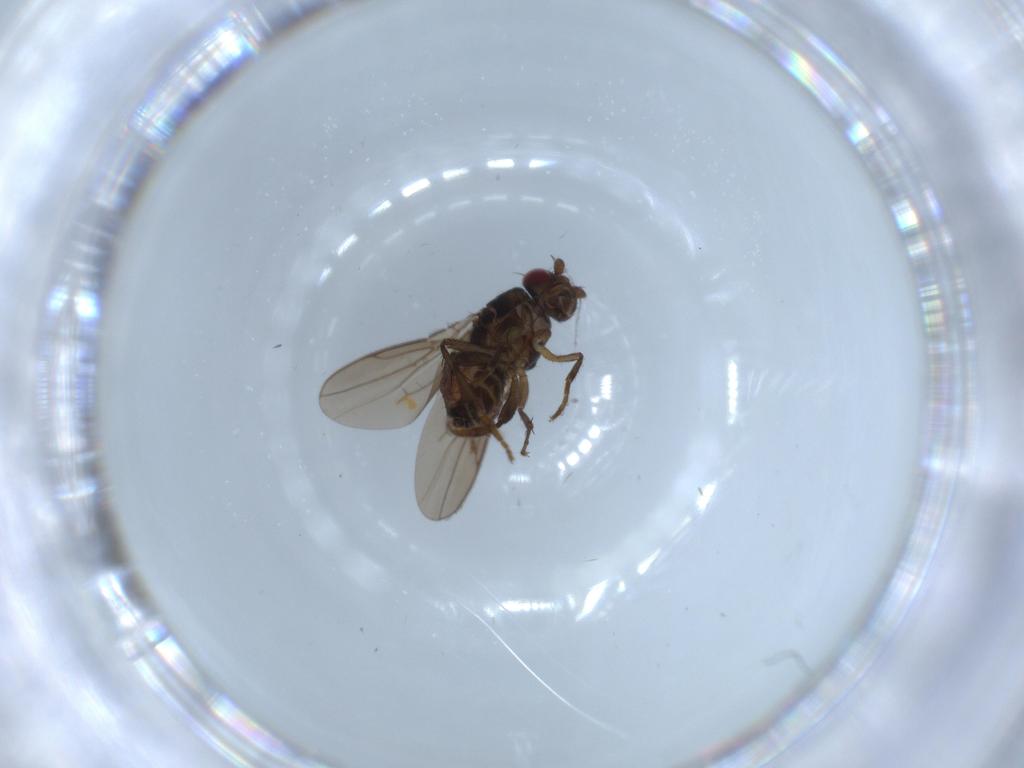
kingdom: Animalia
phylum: Arthropoda
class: Insecta
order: Diptera
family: Sphaeroceridae
